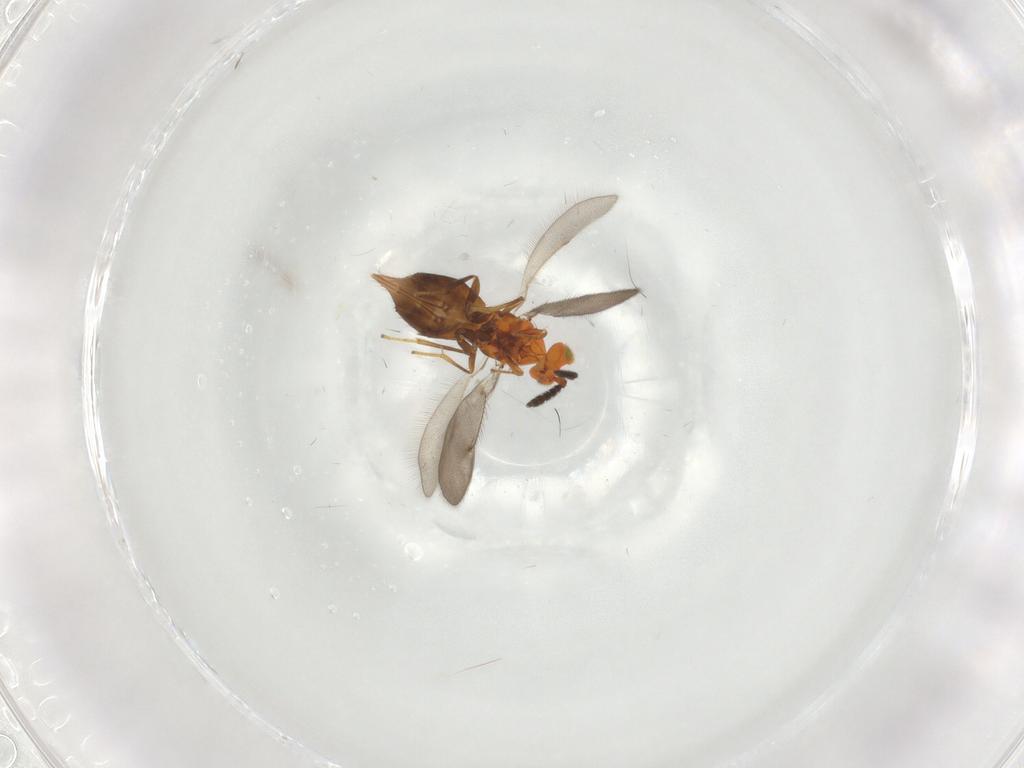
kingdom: Animalia
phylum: Arthropoda
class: Insecta
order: Hymenoptera
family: Aphelinidae
